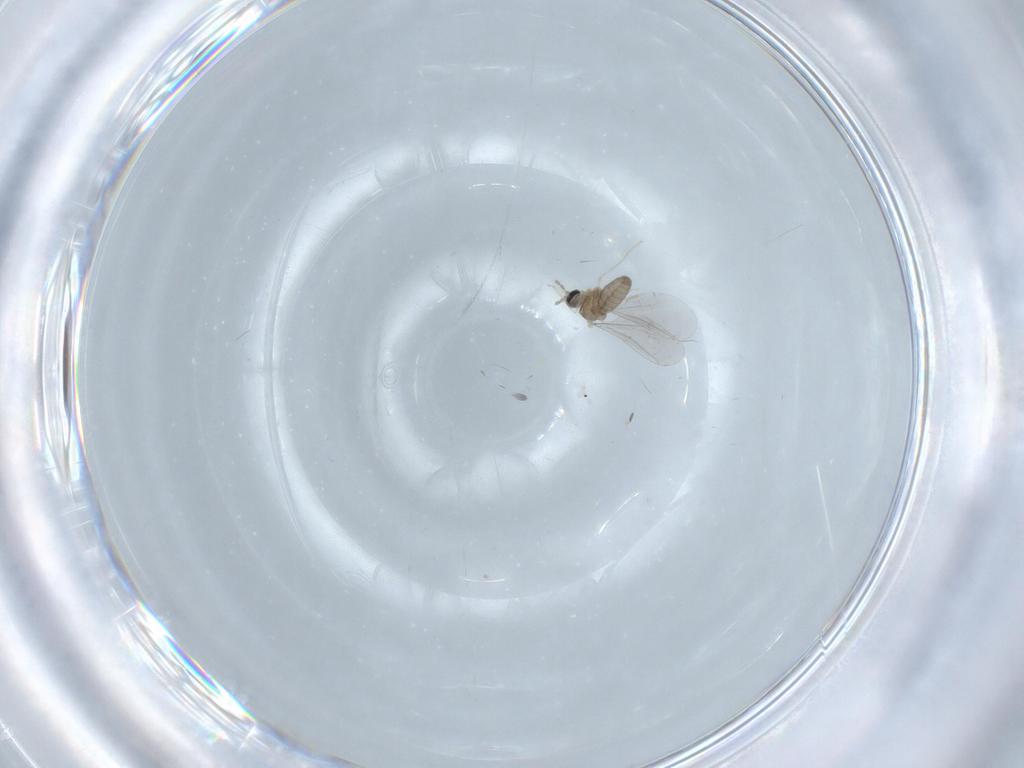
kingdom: Animalia
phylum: Arthropoda
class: Insecta
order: Diptera
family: Cecidomyiidae
